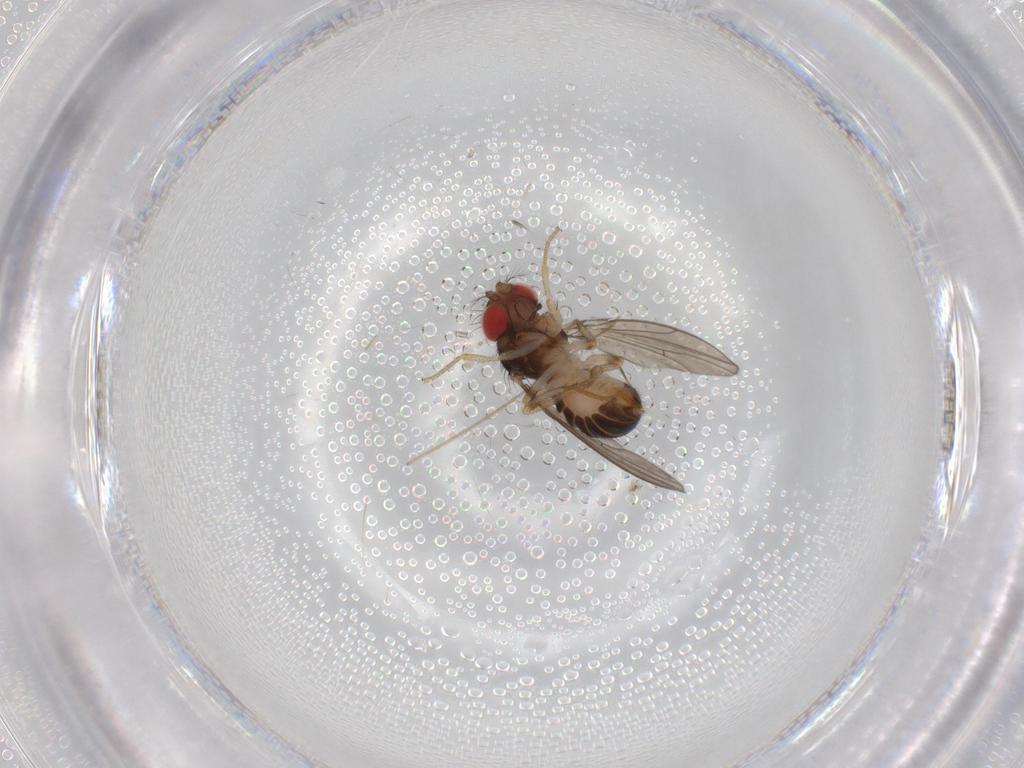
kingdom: Animalia
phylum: Arthropoda
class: Insecta
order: Diptera
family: Drosophilidae
